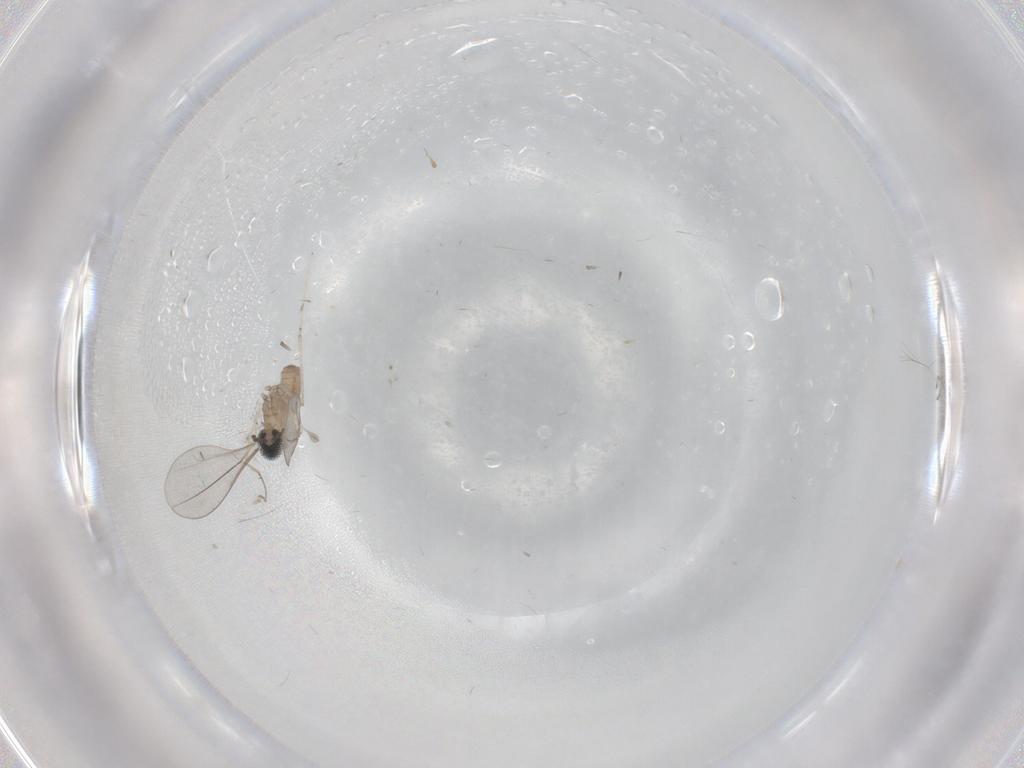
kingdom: Animalia
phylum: Arthropoda
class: Insecta
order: Diptera
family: Cecidomyiidae
